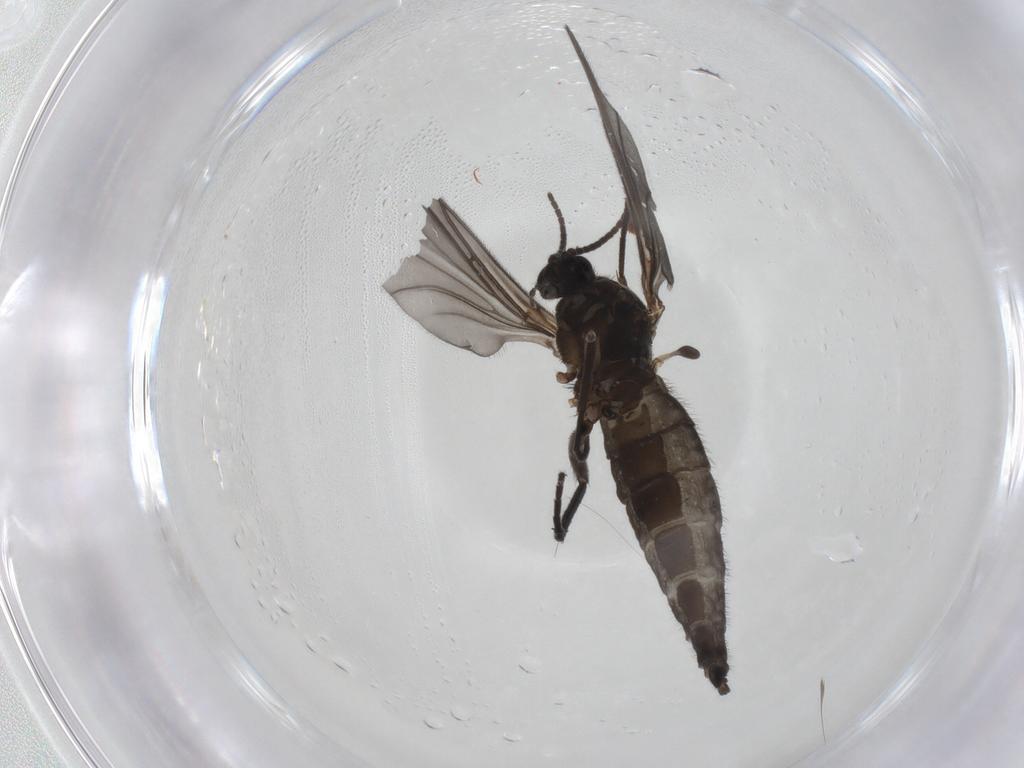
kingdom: Animalia
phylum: Arthropoda
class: Insecta
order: Diptera
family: Sciaridae
